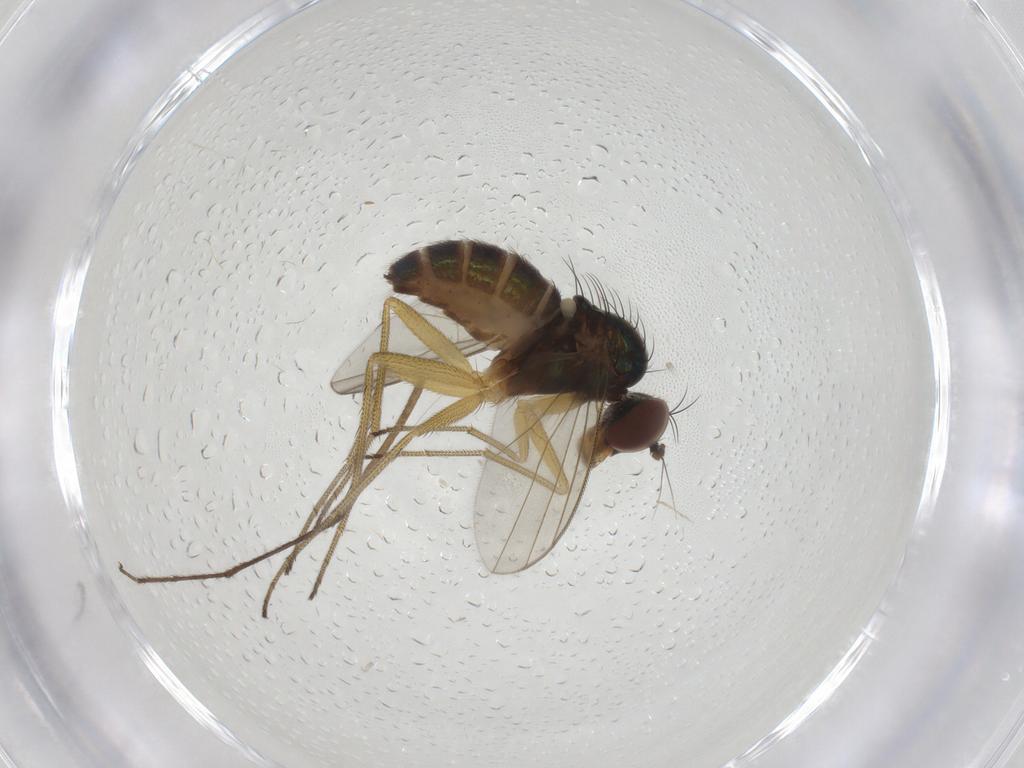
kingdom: Animalia
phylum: Arthropoda
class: Insecta
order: Diptera
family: Dolichopodidae
